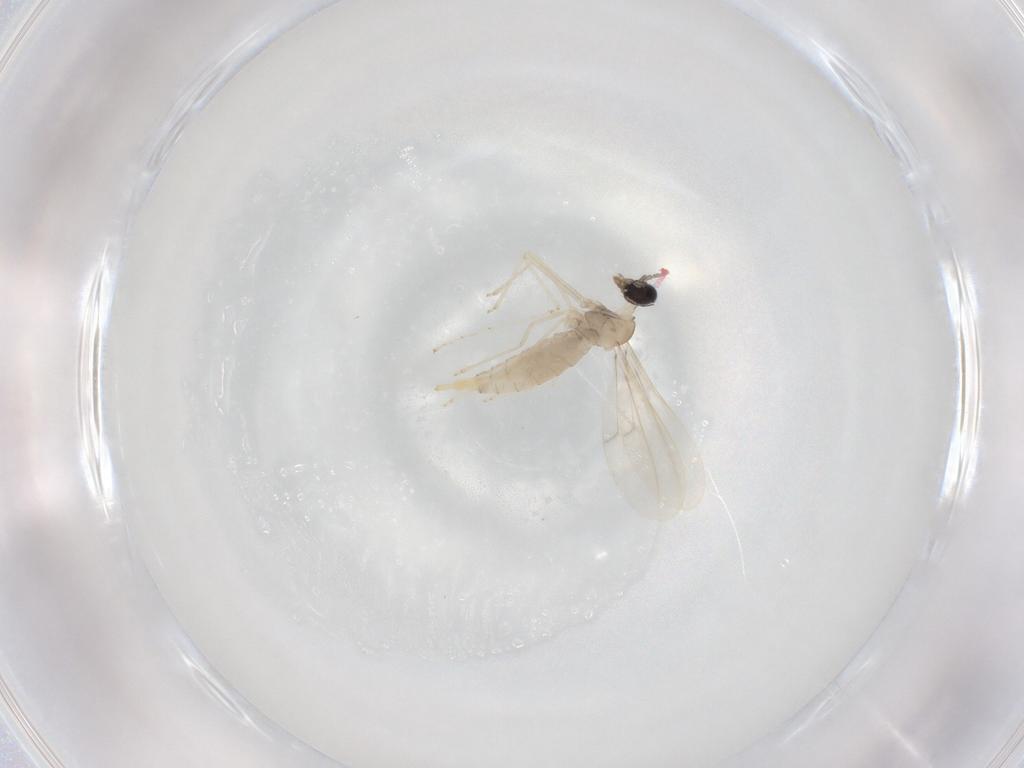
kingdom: Animalia
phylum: Arthropoda
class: Insecta
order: Diptera
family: Cecidomyiidae
